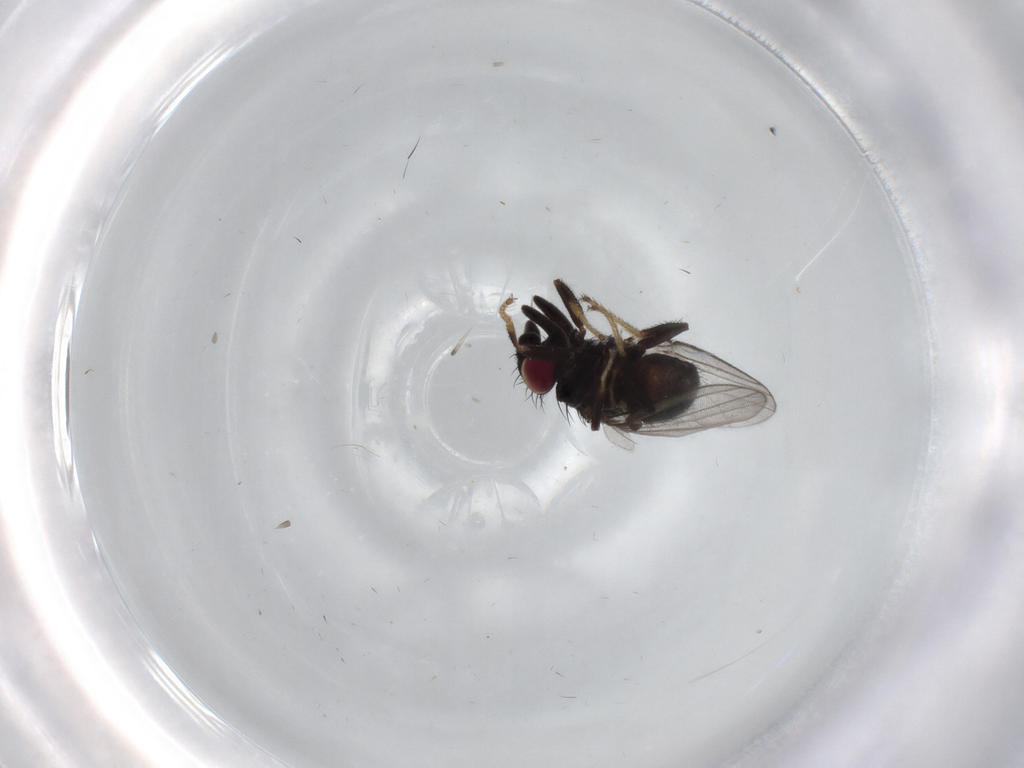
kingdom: Animalia
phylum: Arthropoda
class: Insecta
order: Diptera
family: Milichiidae
